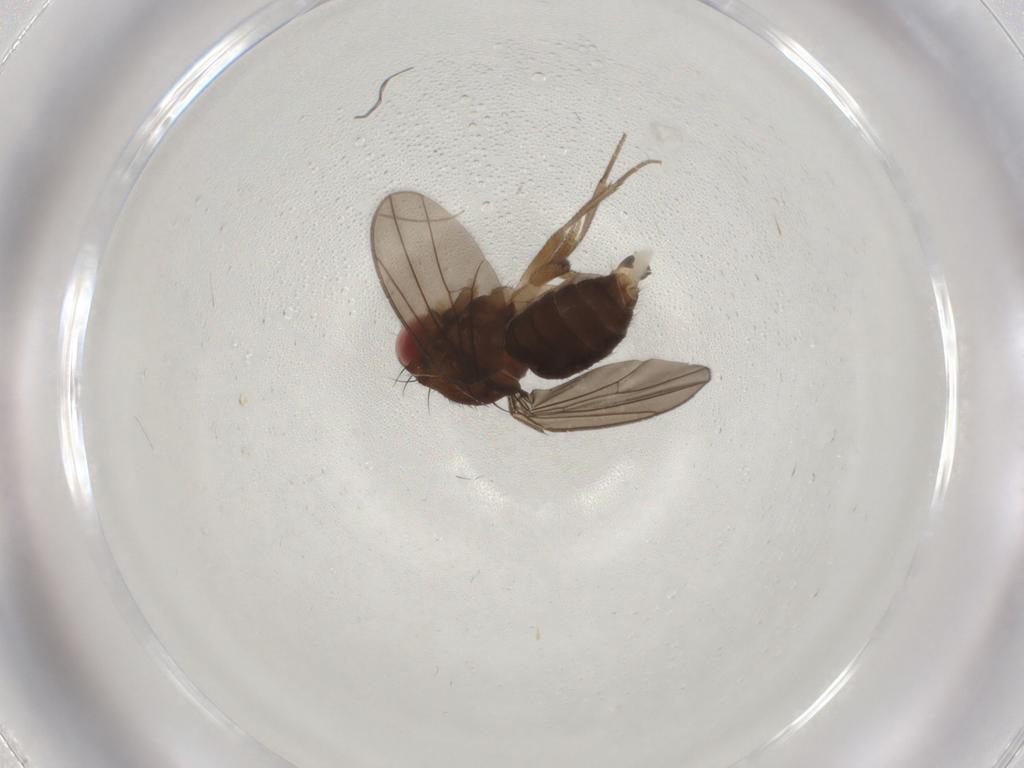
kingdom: Animalia
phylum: Arthropoda
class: Insecta
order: Diptera
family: Drosophilidae
